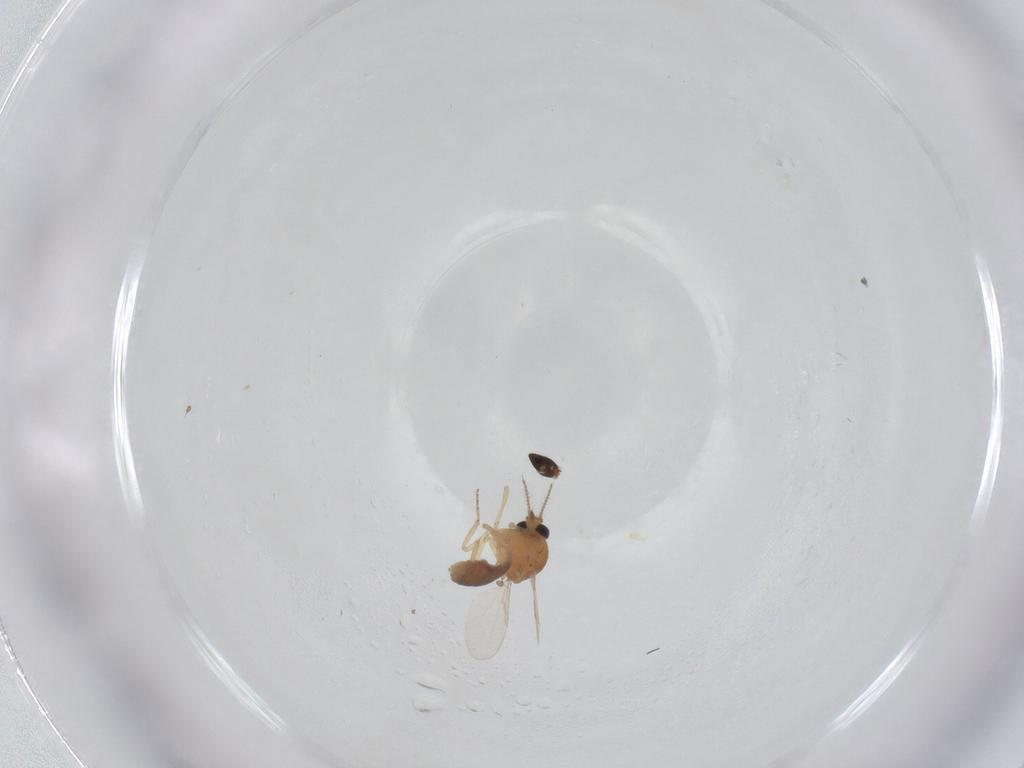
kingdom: Animalia
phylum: Arthropoda
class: Insecta
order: Diptera
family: Ceratopogonidae
